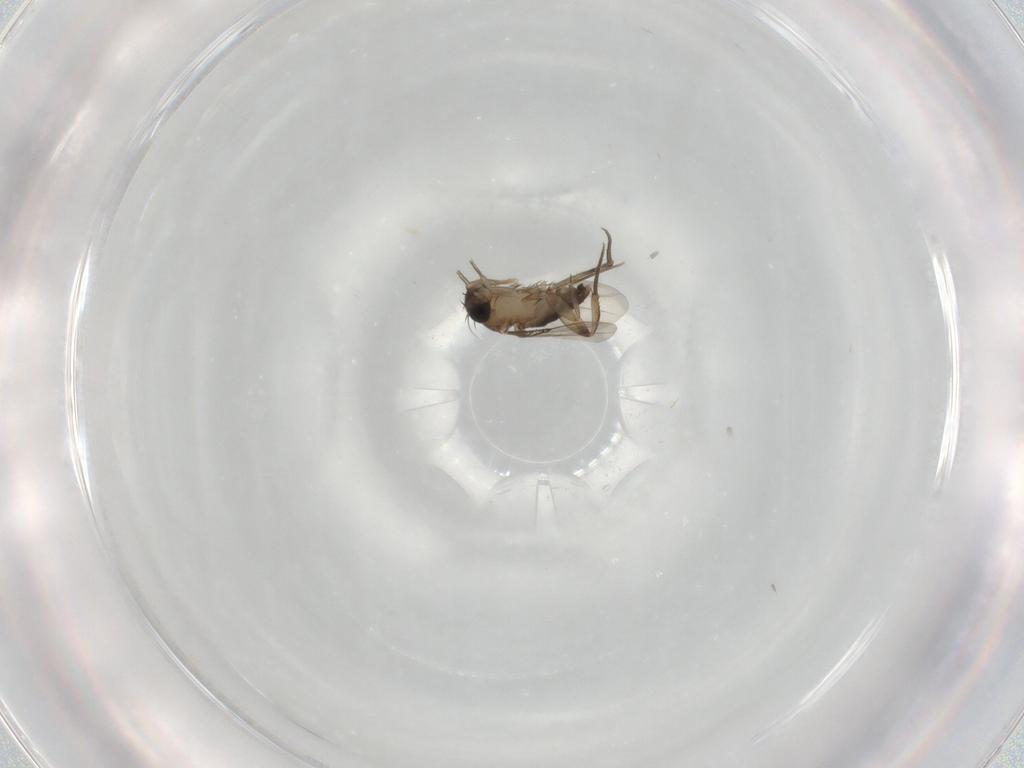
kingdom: Animalia
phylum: Arthropoda
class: Insecta
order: Diptera
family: Phoridae
